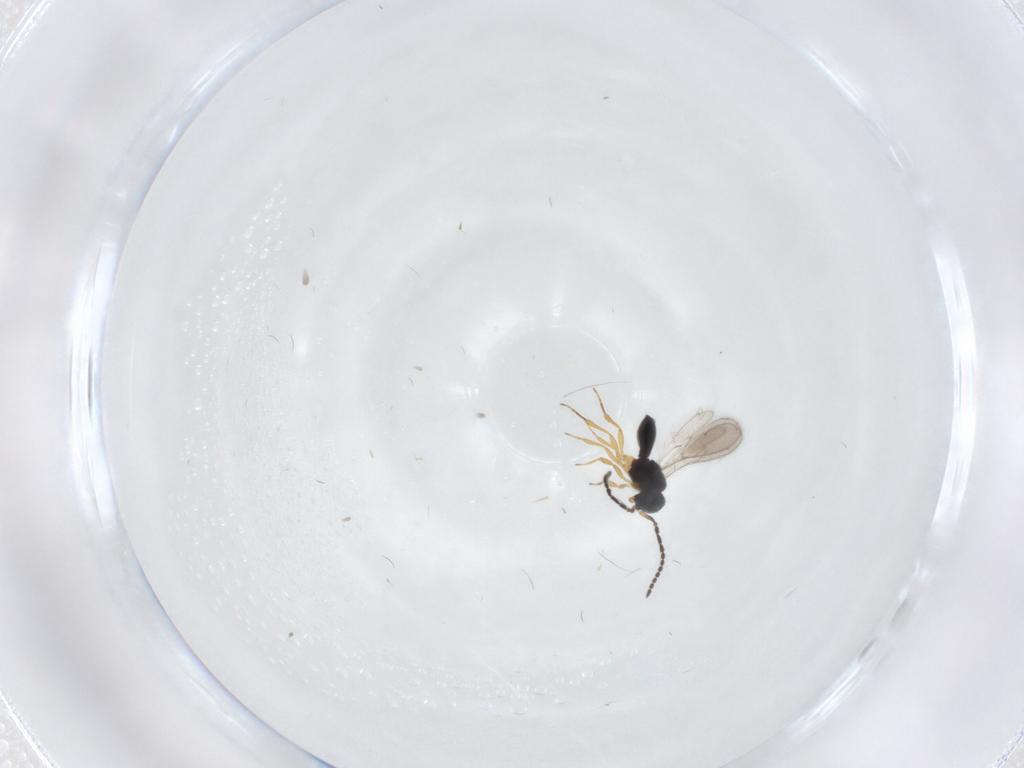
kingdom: Animalia
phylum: Arthropoda
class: Insecta
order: Hymenoptera
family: Scelionidae
